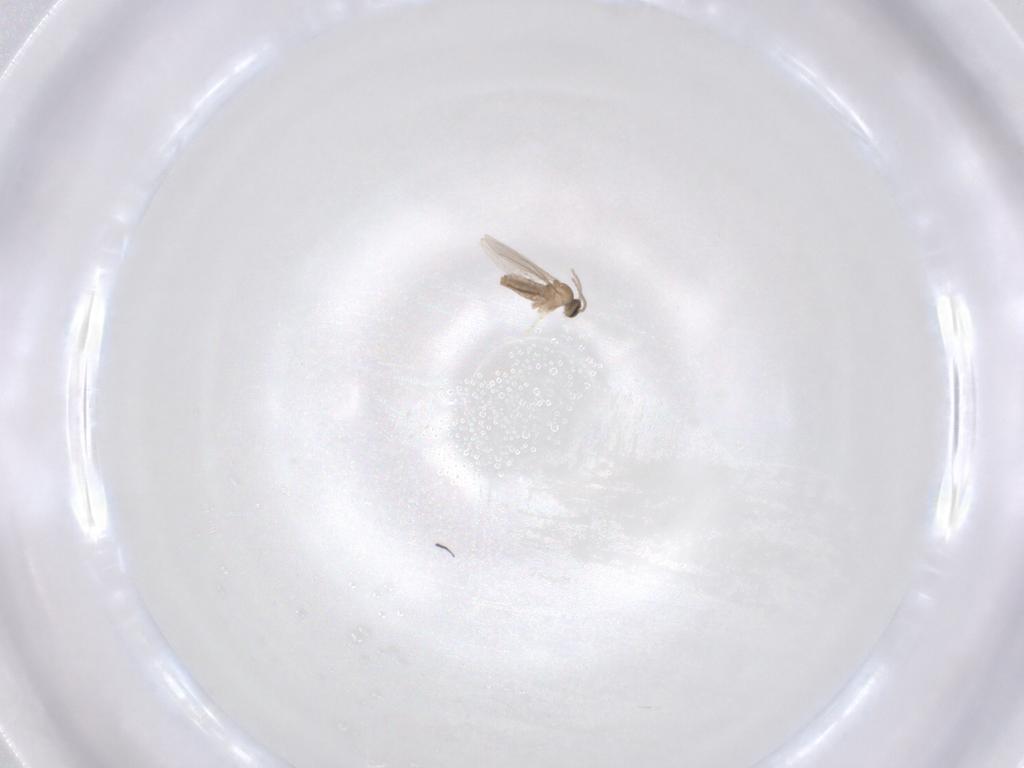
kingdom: Animalia
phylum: Arthropoda
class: Insecta
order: Diptera
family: Cecidomyiidae
